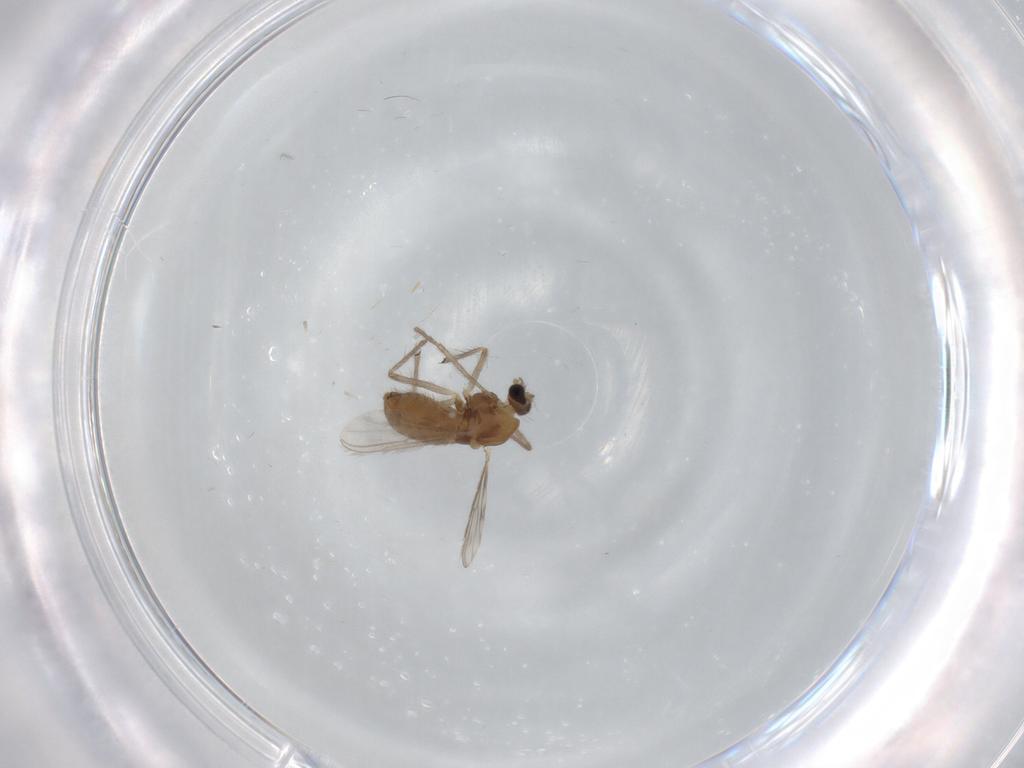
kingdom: Animalia
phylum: Arthropoda
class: Insecta
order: Diptera
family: Chironomidae
